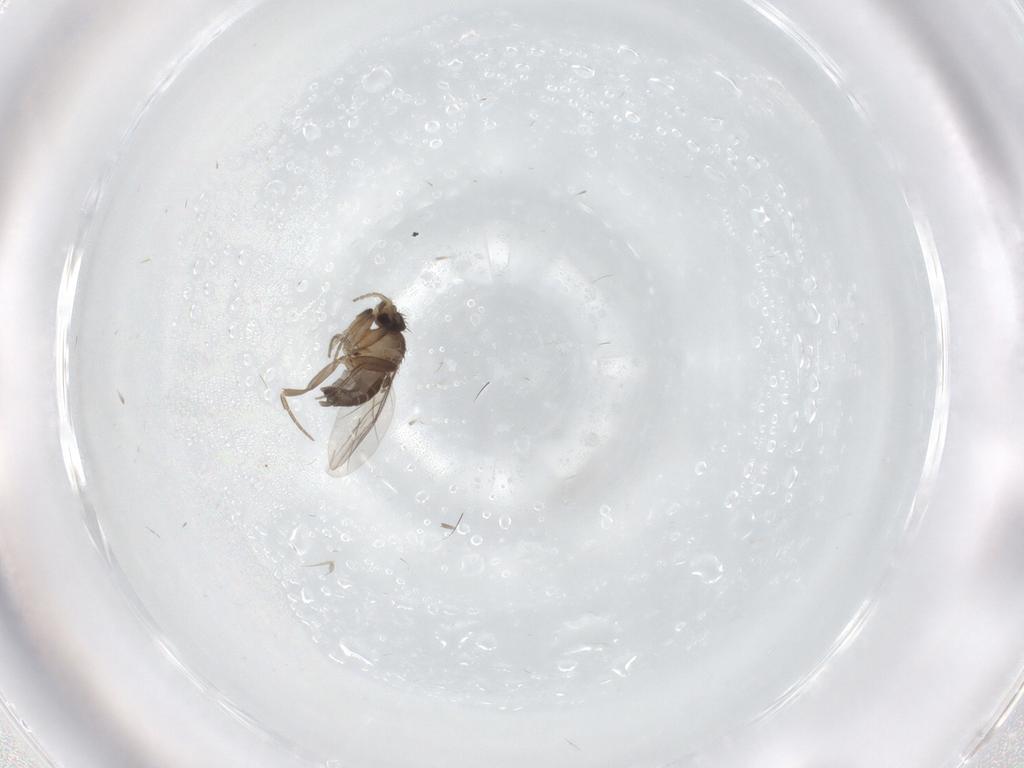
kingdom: Animalia
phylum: Arthropoda
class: Insecta
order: Diptera
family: Phoridae
